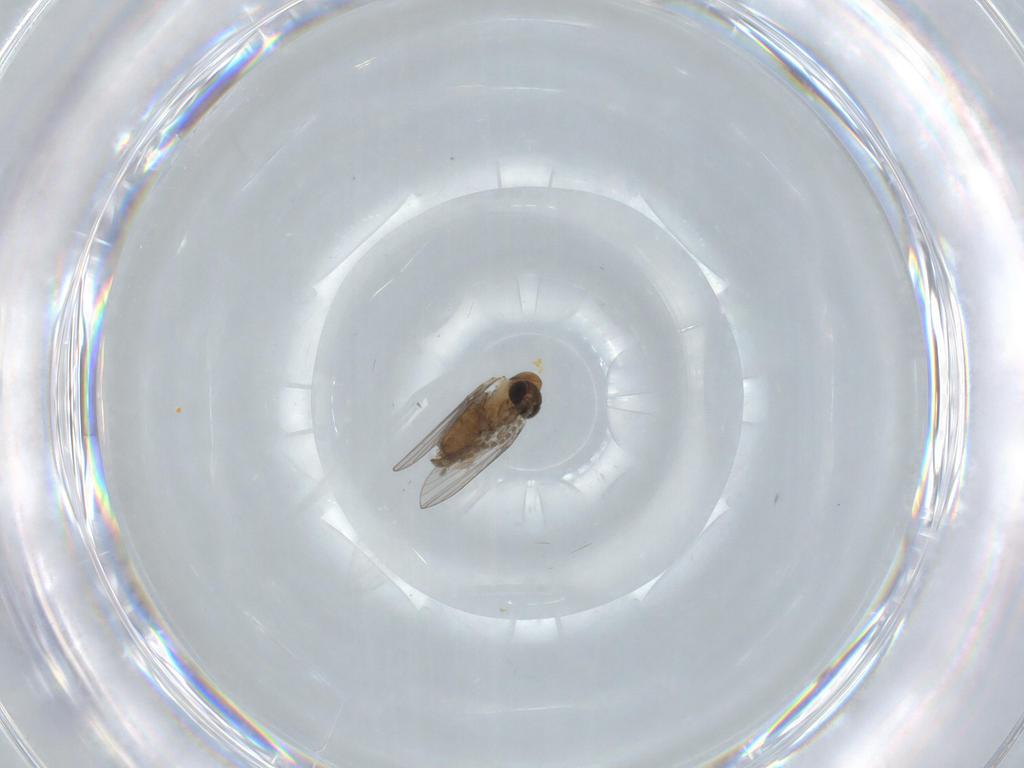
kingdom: Animalia
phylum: Arthropoda
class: Insecta
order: Diptera
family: Psychodidae
